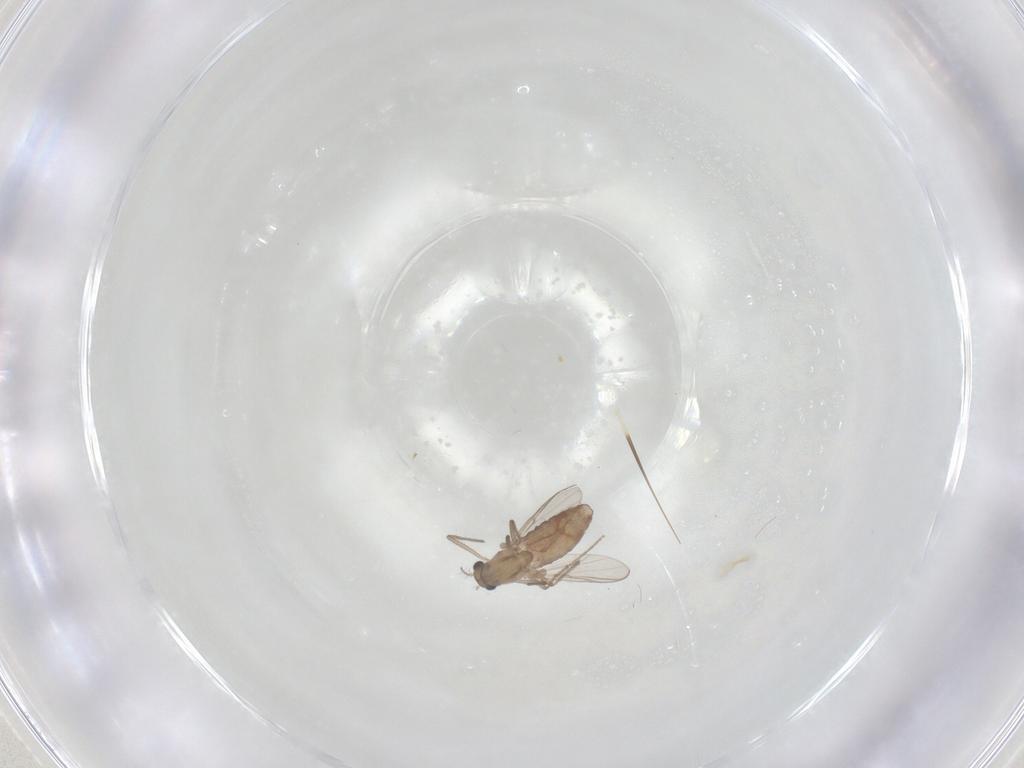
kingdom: Animalia
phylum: Arthropoda
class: Insecta
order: Diptera
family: Chironomidae
